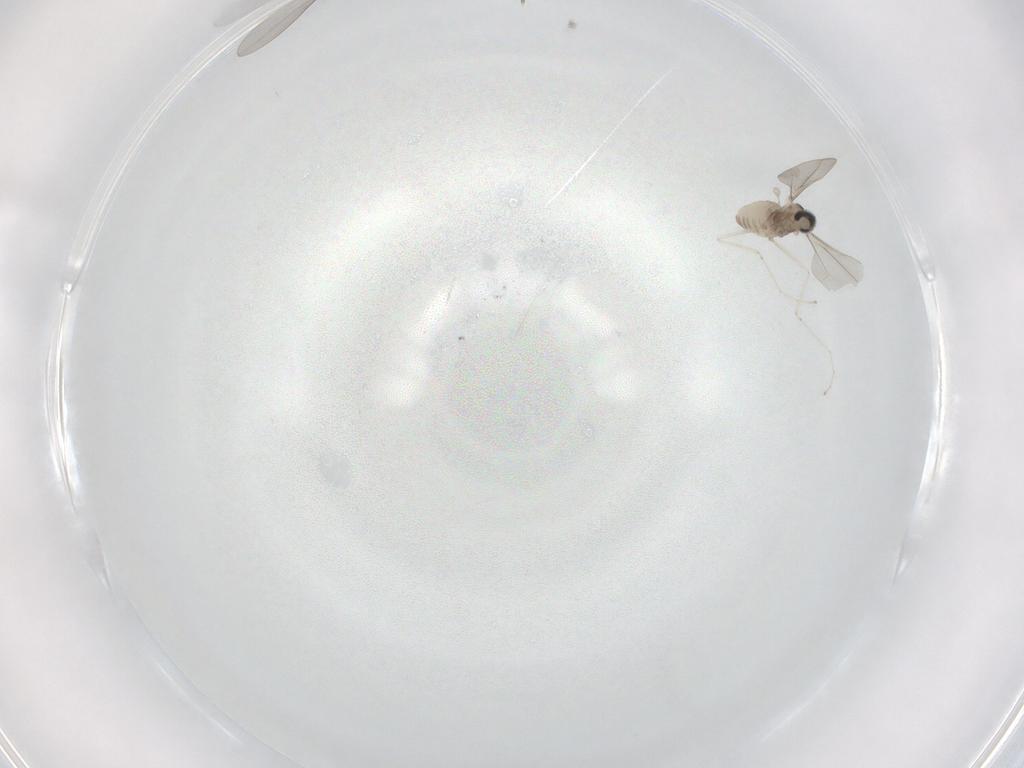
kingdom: Animalia
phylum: Arthropoda
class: Insecta
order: Diptera
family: Cecidomyiidae
